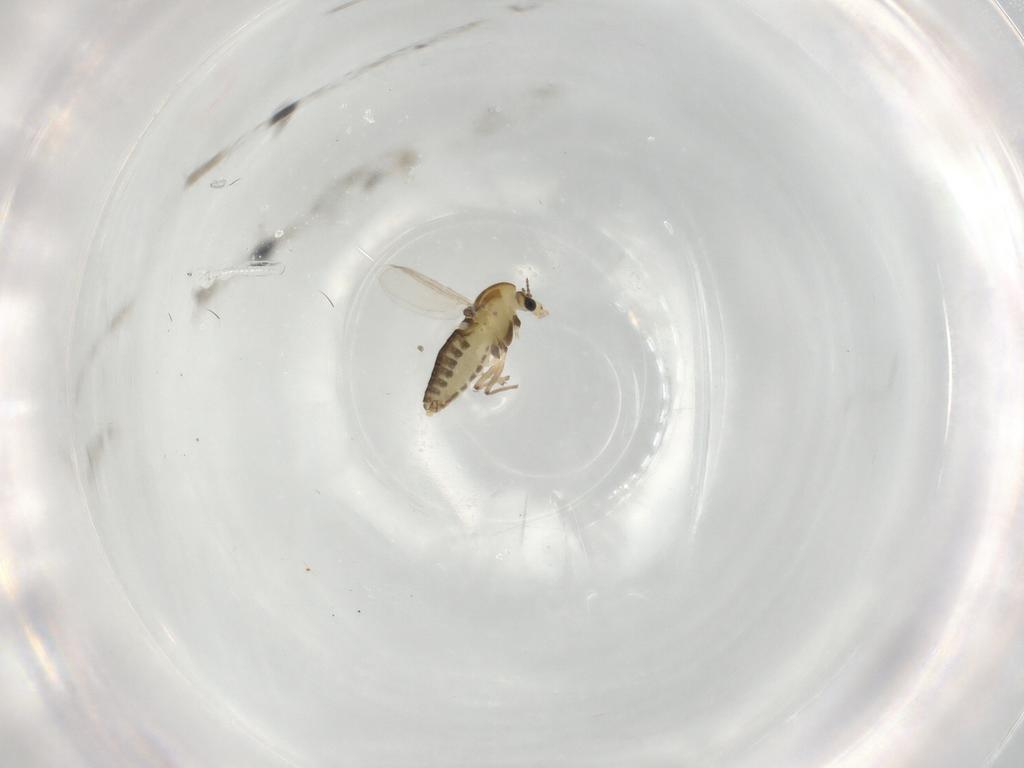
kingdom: Animalia
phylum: Arthropoda
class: Insecta
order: Diptera
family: Chironomidae
